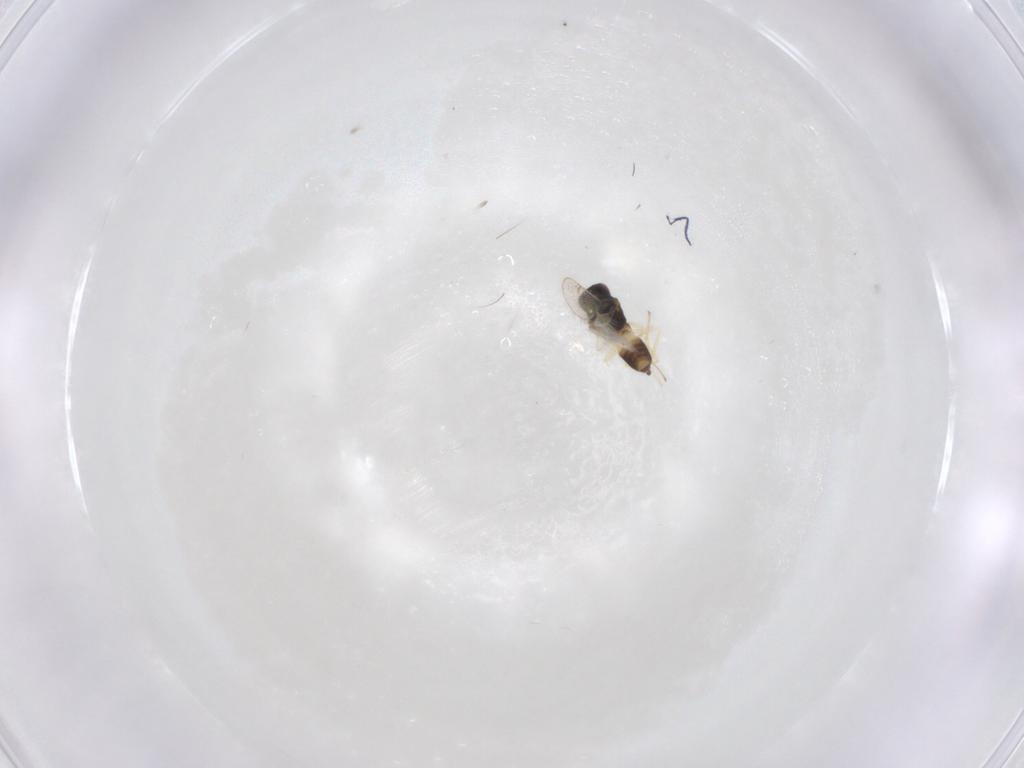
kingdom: Animalia
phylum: Arthropoda
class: Insecta
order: Hymenoptera
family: Eulophidae
